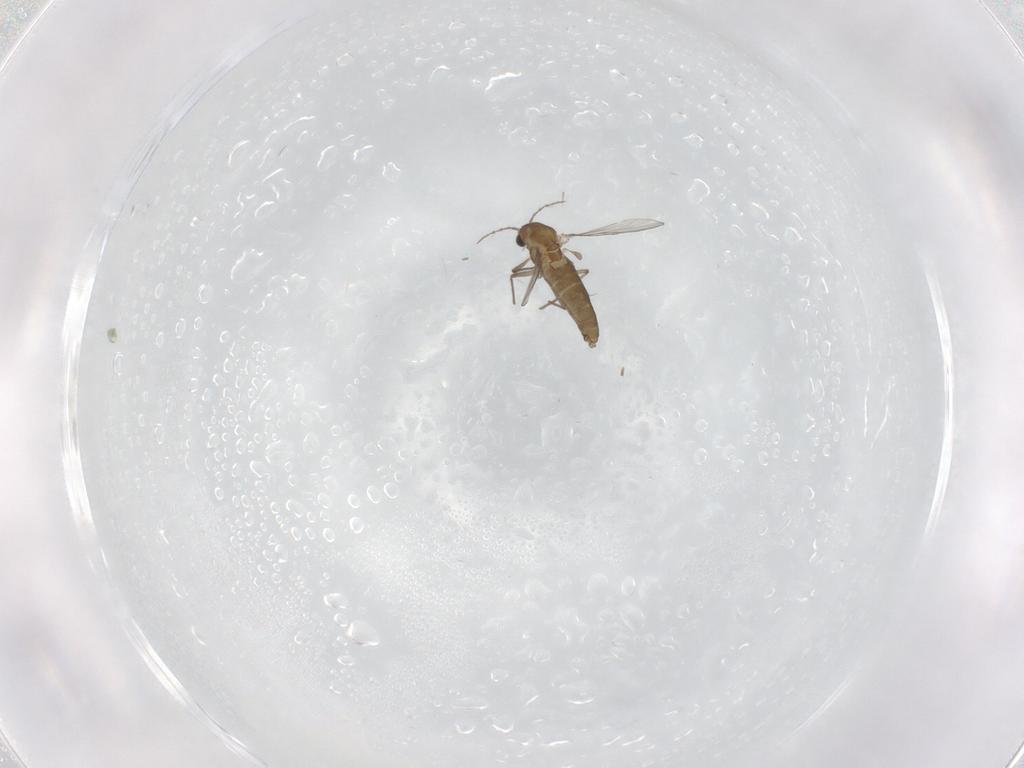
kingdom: Animalia
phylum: Arthropoda
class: Insecta
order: Diptera
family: Chironomidae
